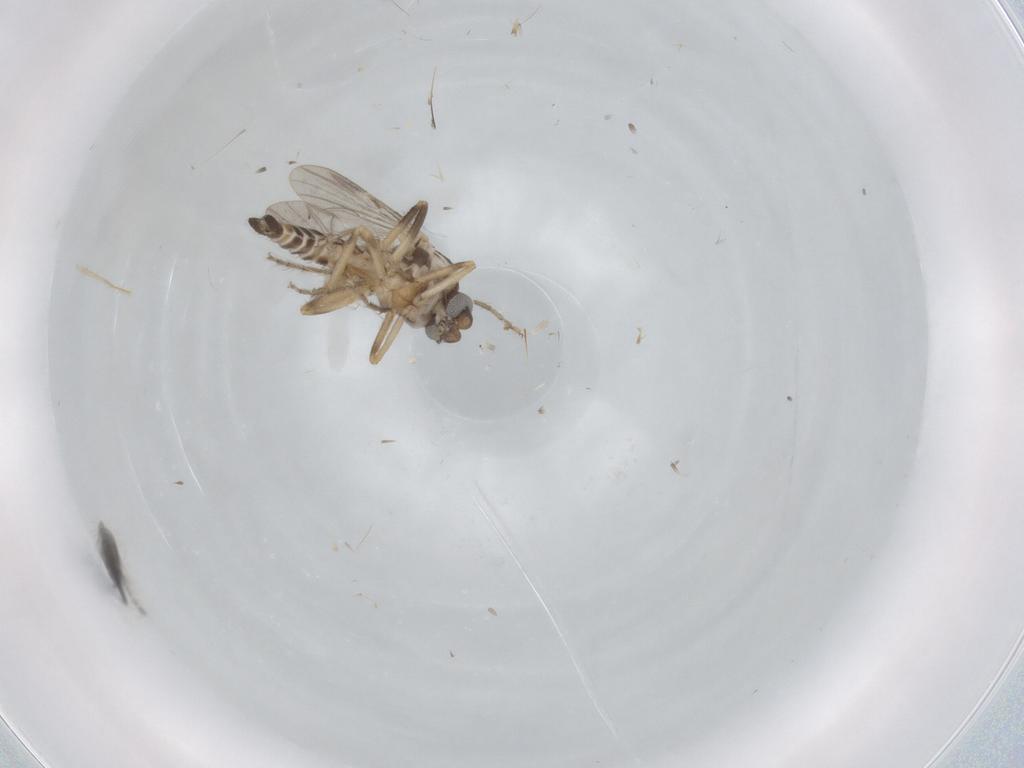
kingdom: Animalia
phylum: Arthropoda
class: Insecta
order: Diptera
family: Ceratopogonidae
